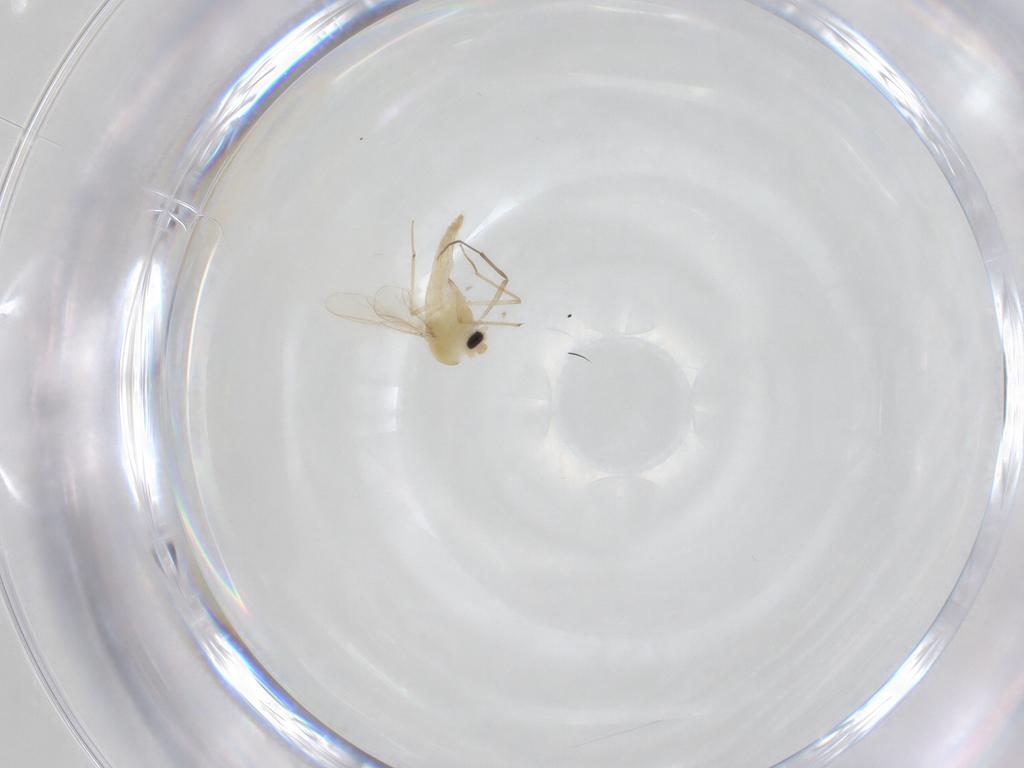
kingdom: Animalia
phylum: Arthropoda
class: Insecta
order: Diptera
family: Chironomidae
